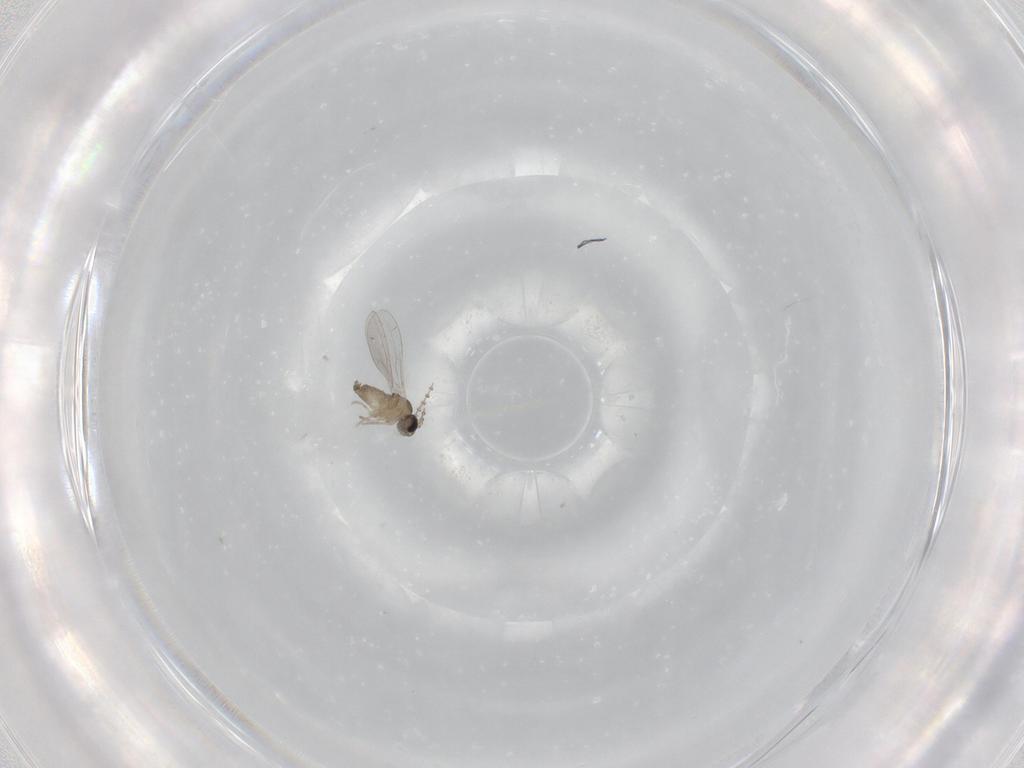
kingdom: Animalia
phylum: Arthropoda
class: Insecta
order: Diptera
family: Cecidomyiidae
